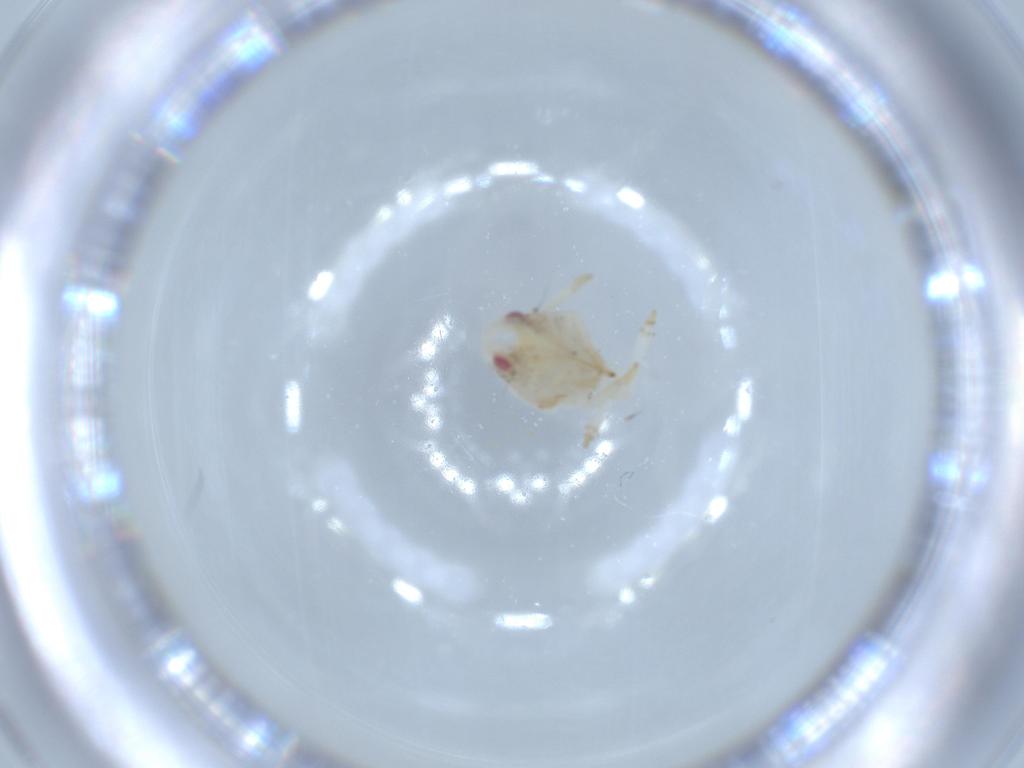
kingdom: Animalia
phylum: Arthropoda
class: Insecta
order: Hemiptera
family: Acanaloniidae
